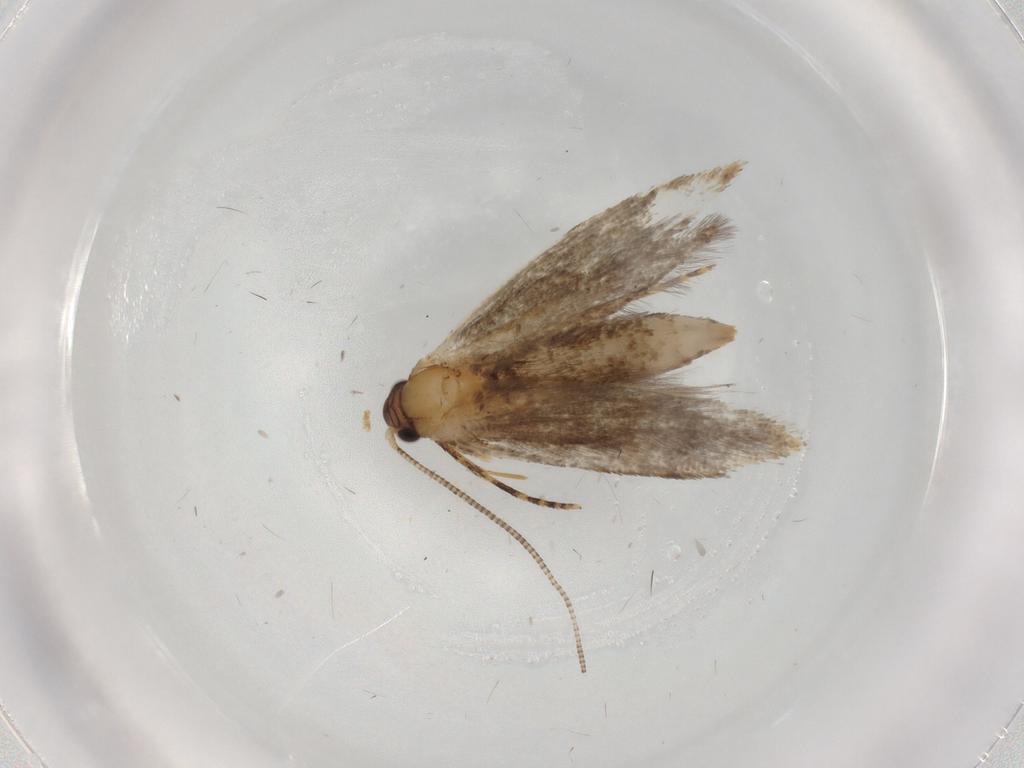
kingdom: Animalia
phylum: Arthropoda
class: Insecta
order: Lepidoptera
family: Tineidae
